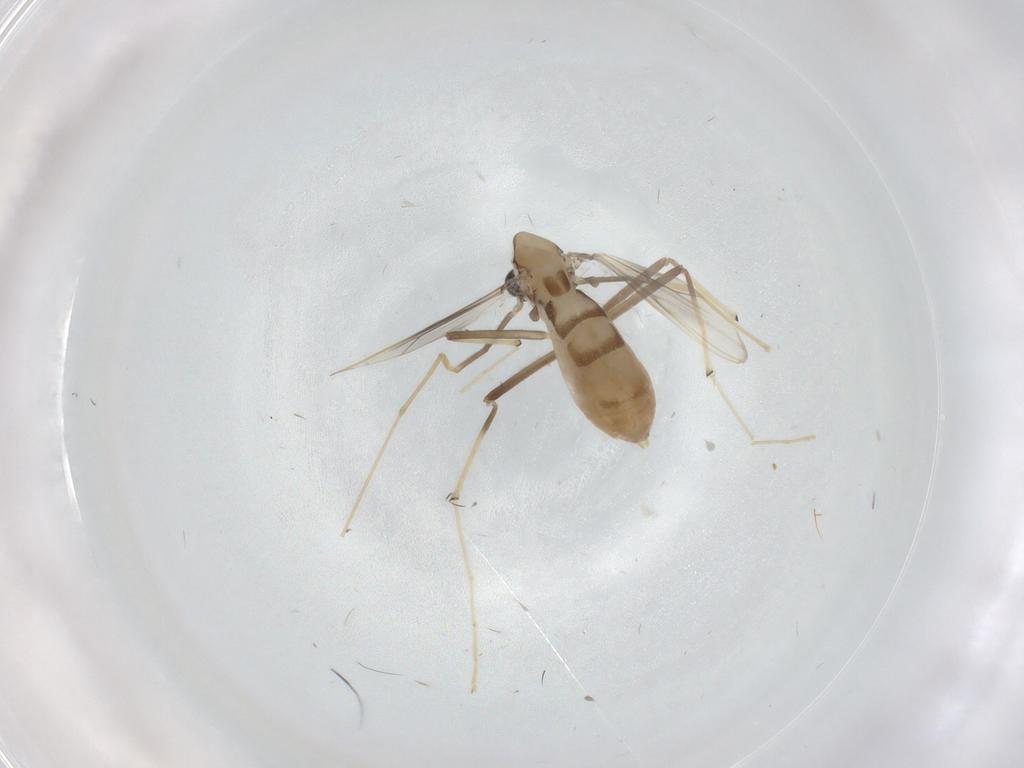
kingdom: Animalia
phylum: Arthropoda
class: Insecta
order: Diptera
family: Chironomidae
